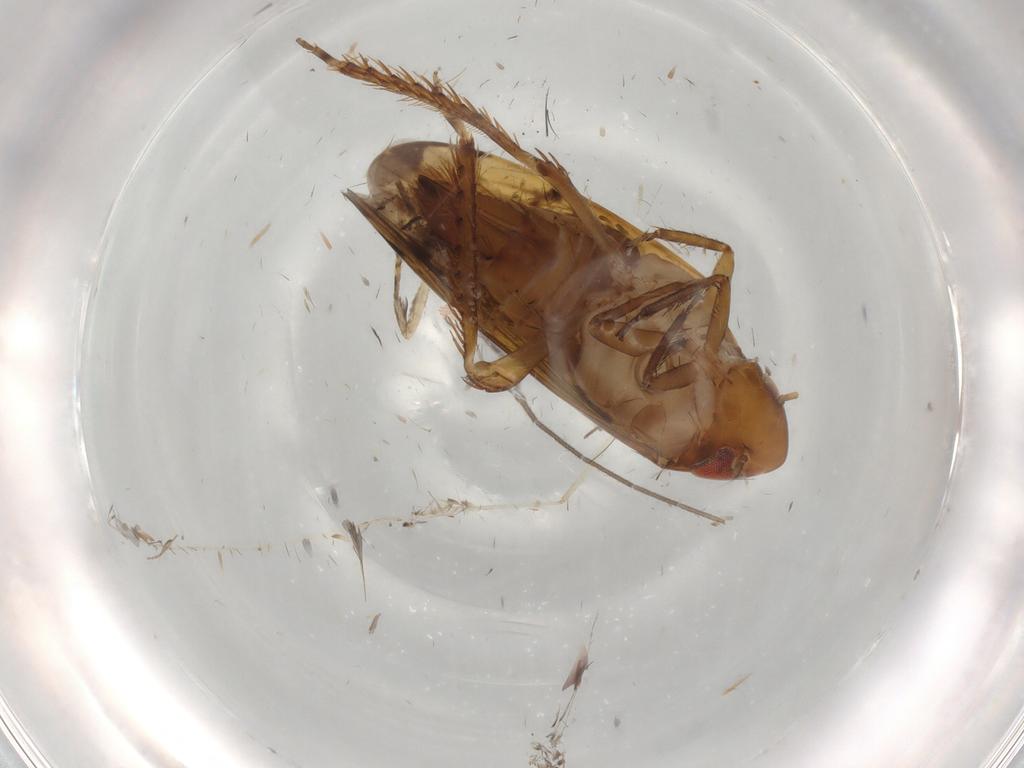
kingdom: Animalia
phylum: Arthropoda
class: Insecta
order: Hemiptera
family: Cicadellidae
